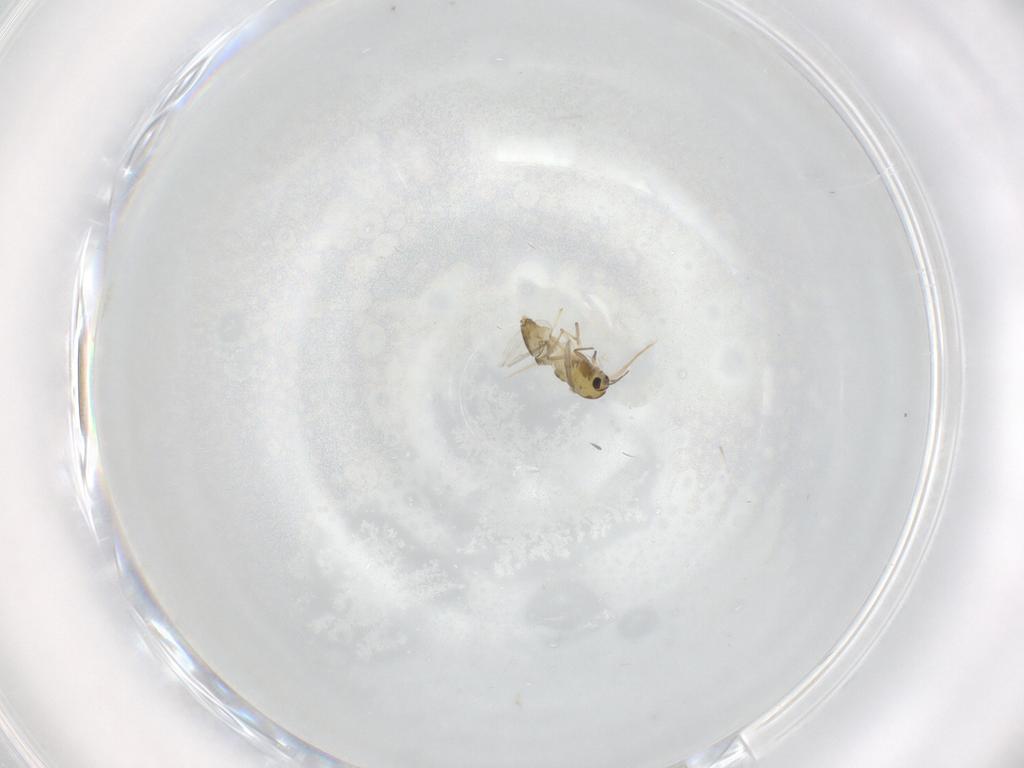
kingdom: Animalia
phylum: Arthropoda
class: Insecta
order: Diptera
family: Chironomidae
